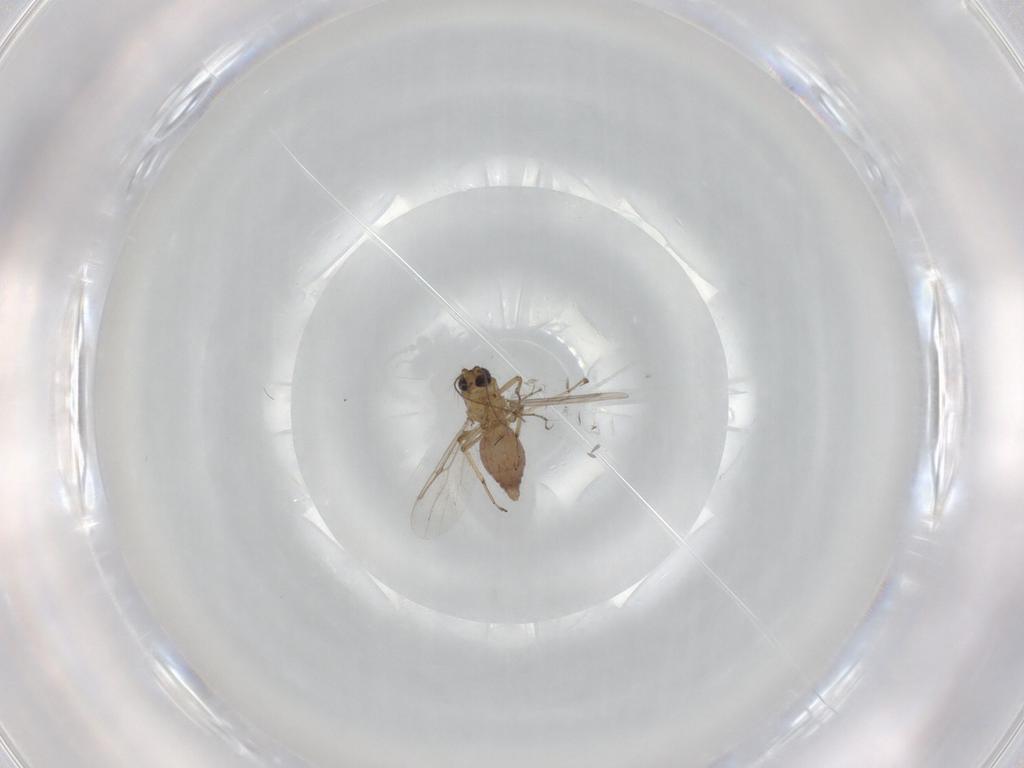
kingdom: Animalia
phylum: Arthropoda
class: Insecta
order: Diptera
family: Chironomidae
